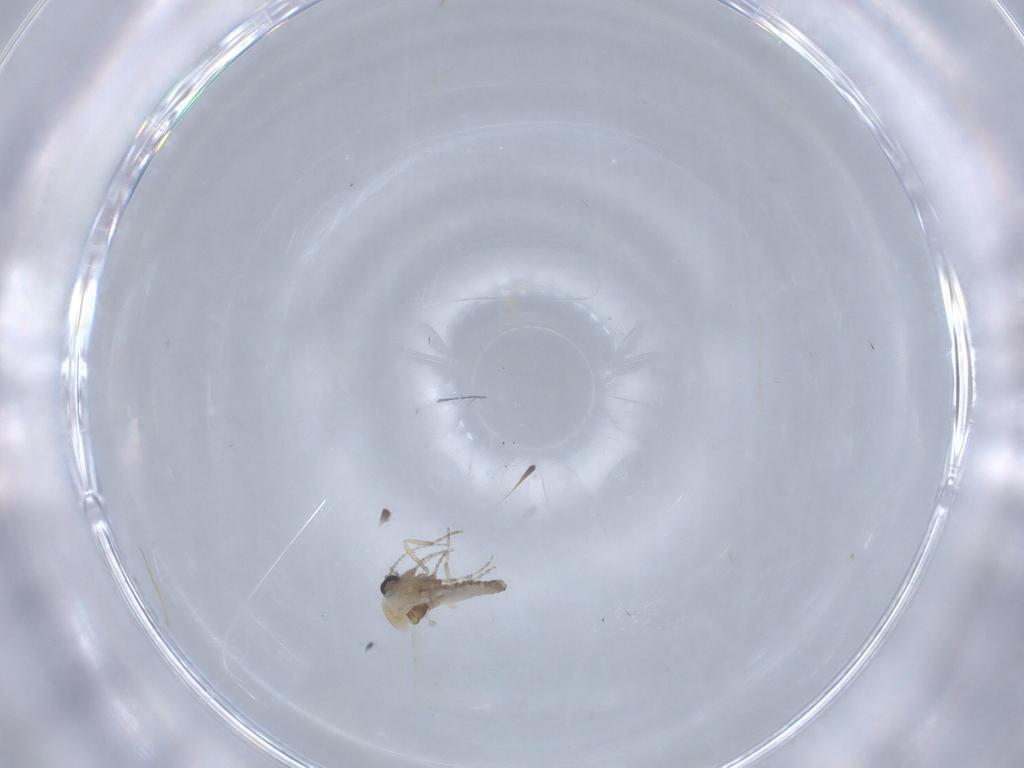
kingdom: Animalia
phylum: Arthropoda
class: Insecta
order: Diptera
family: Ceratopogonidae
